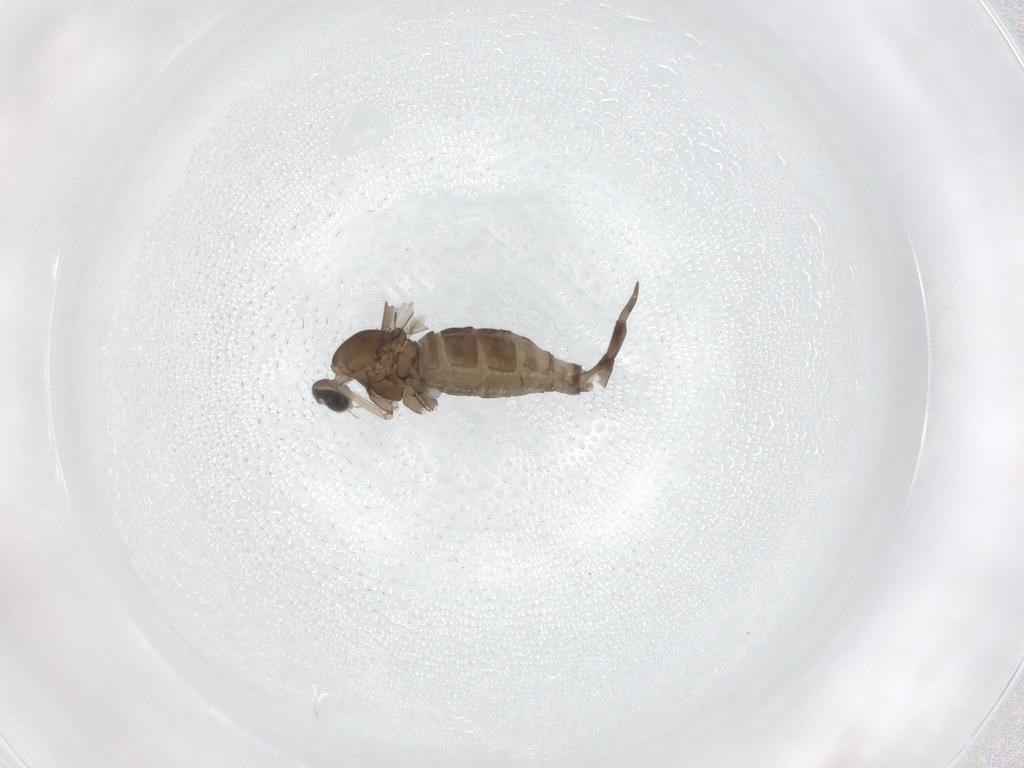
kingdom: Animalia
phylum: Arthropoda
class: Insecta
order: Diptera
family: Cecidomyiidae
